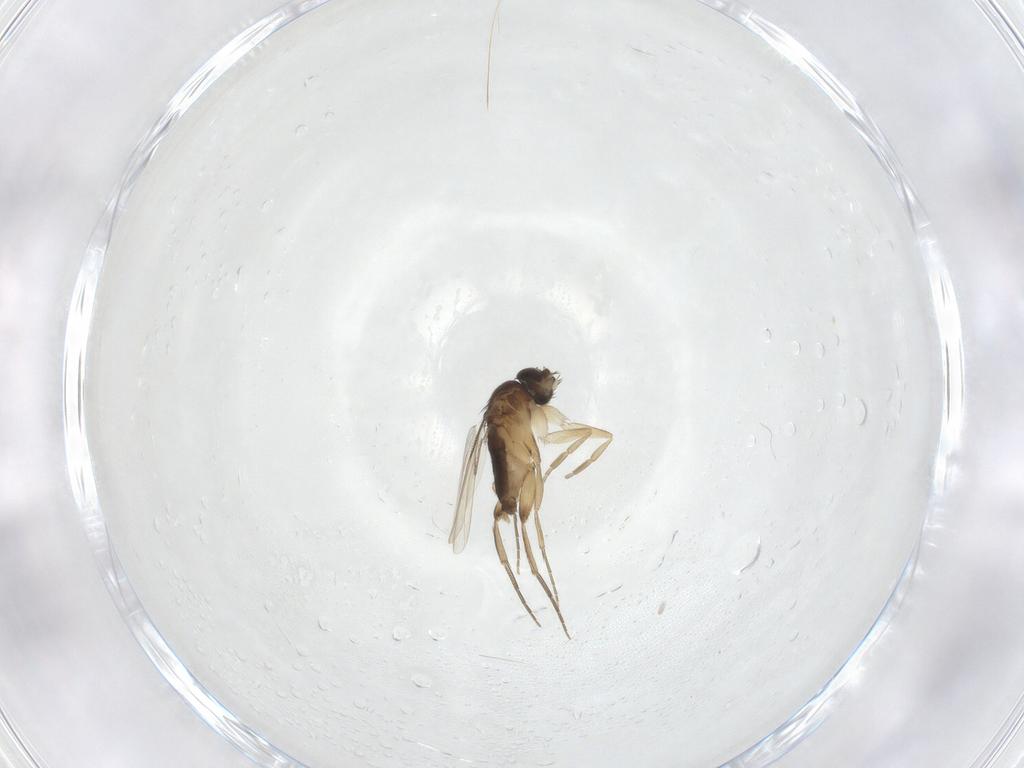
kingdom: Animalia
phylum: Arthropoda
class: Insecta
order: Diptera
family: Phoridae
